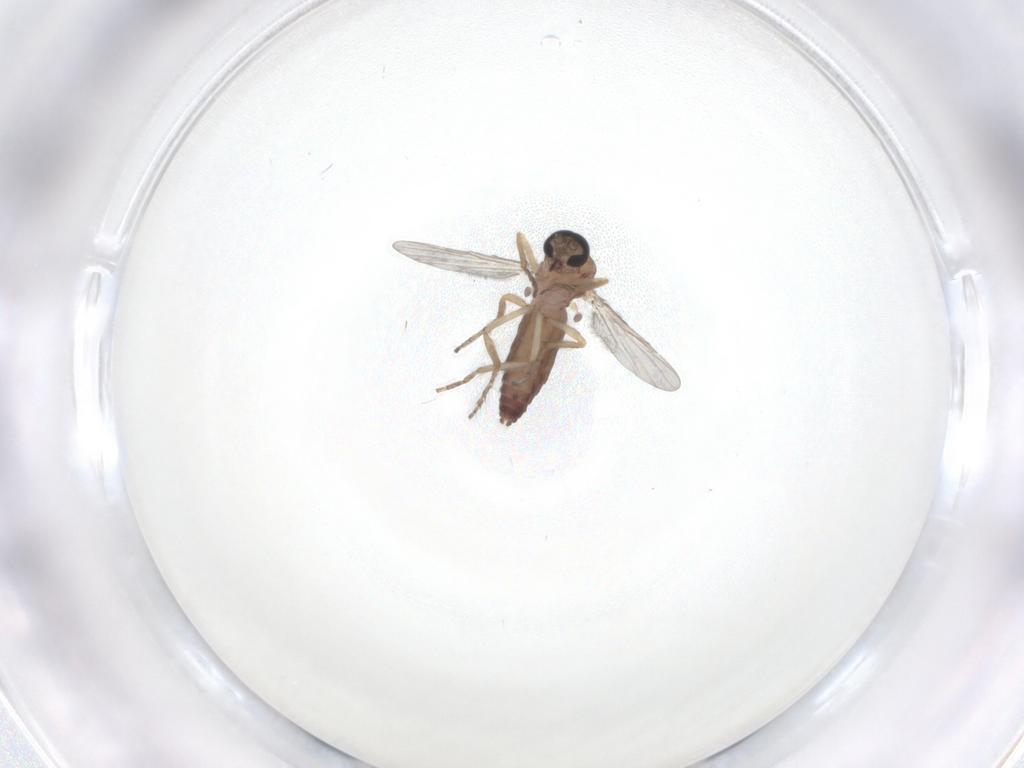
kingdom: Animalia
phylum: Arthropoda
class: Insecta
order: Diptera
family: Ceratopogonidae
